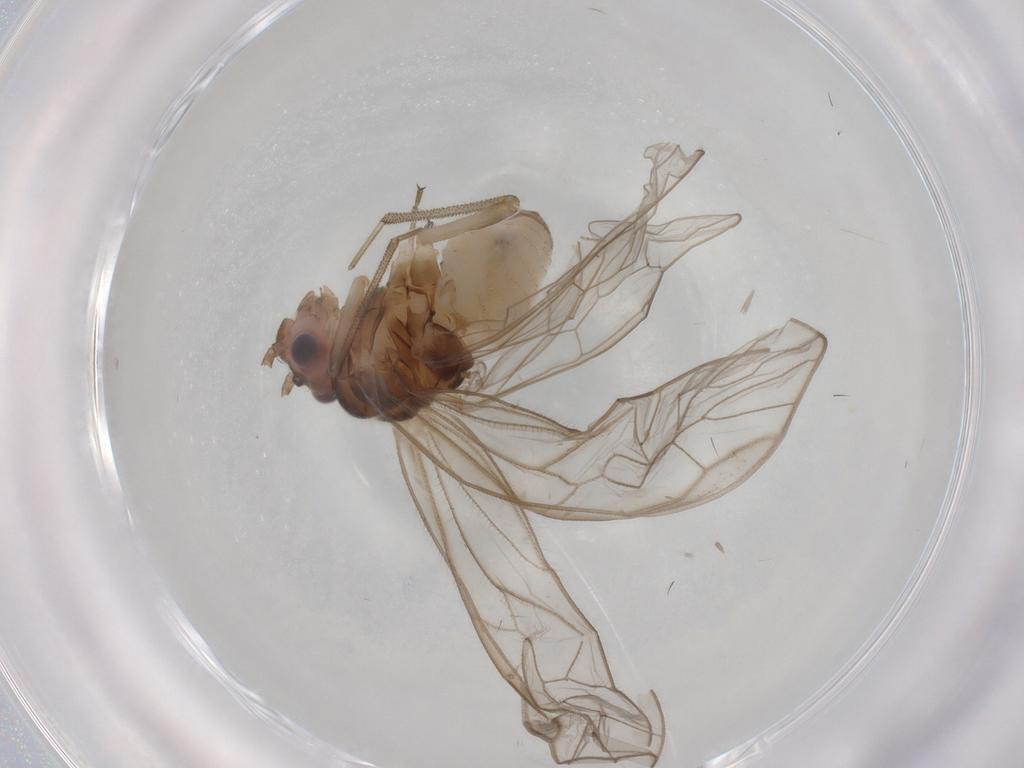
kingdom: Animalia
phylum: Arthropoda
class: Insecta
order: Psocodea
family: Stenopsocidae
